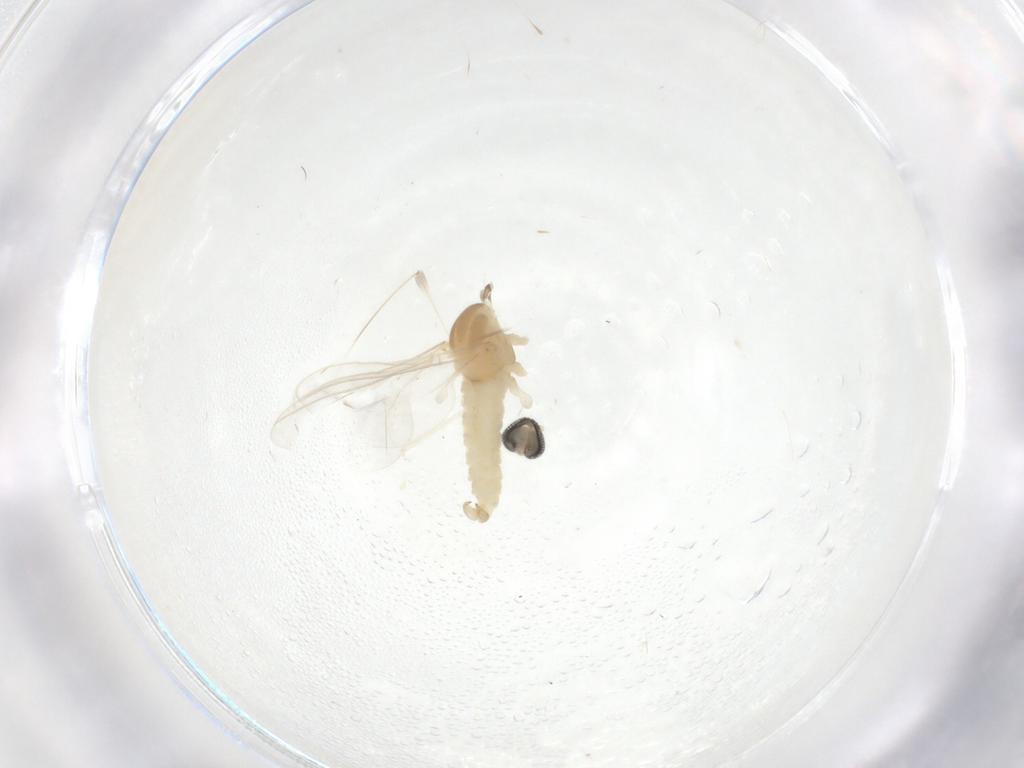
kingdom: Animalia
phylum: Arthropoda
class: Insecta
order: Diptera
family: Cecidomyiidae
